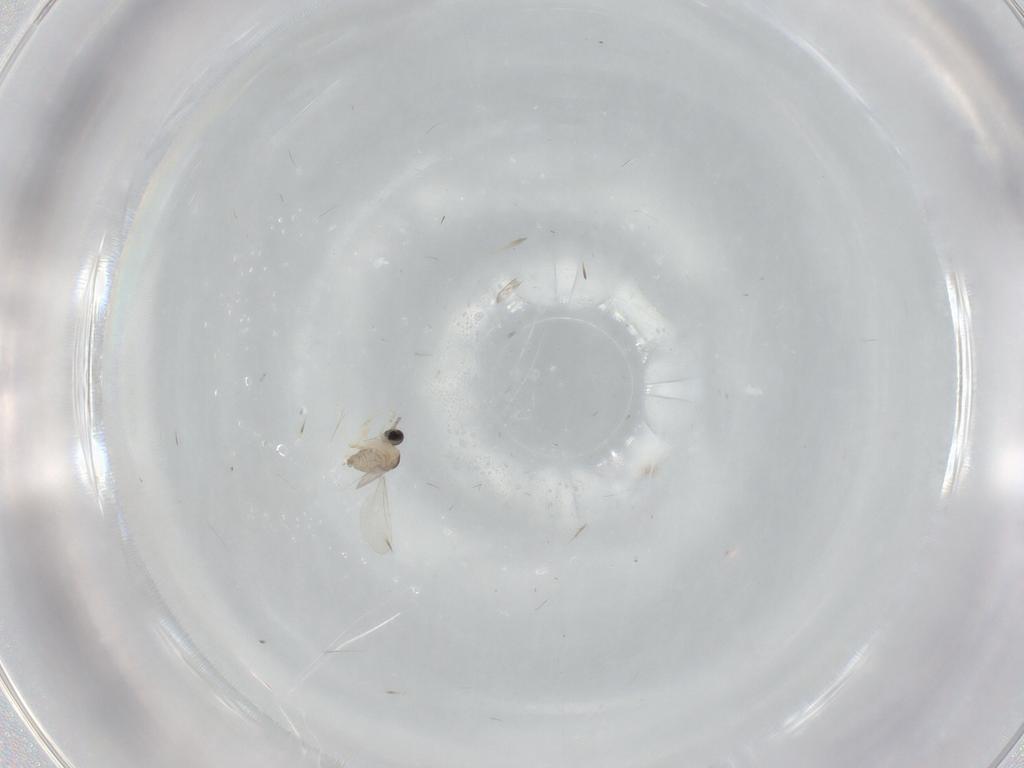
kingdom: Animalia
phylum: Arthropoda
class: Insecta
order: Diptera
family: Cecidomyiidae
